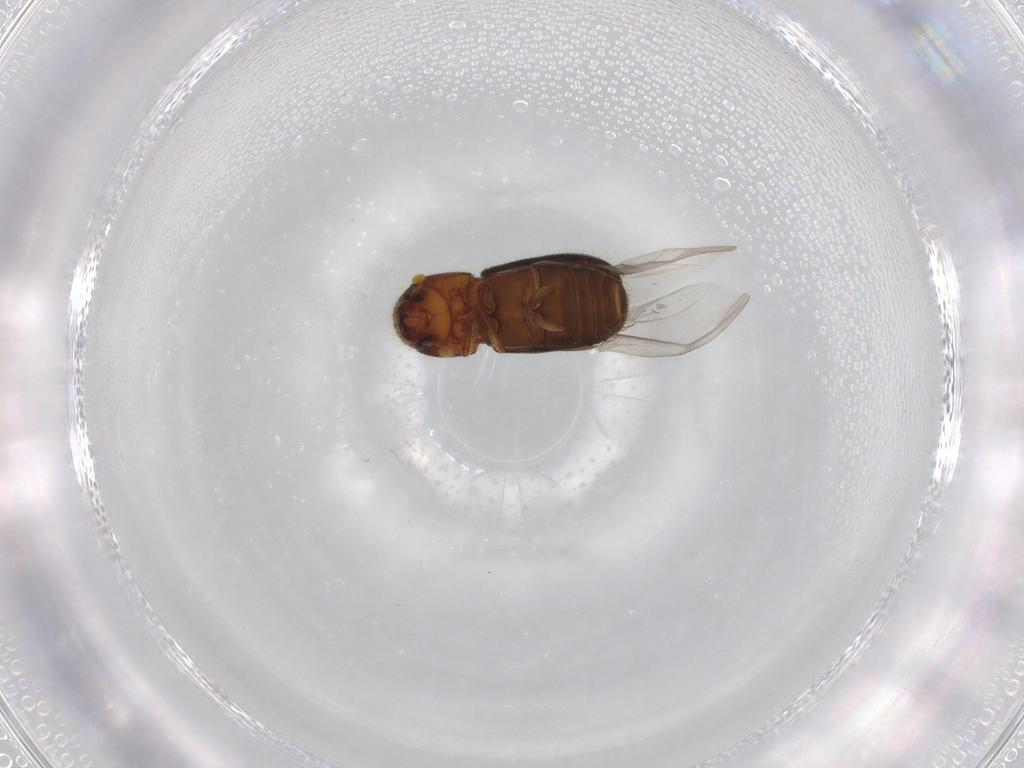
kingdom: Animalia
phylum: Arthropoda
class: Insecta
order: Coleoptera
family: Curculionidae
